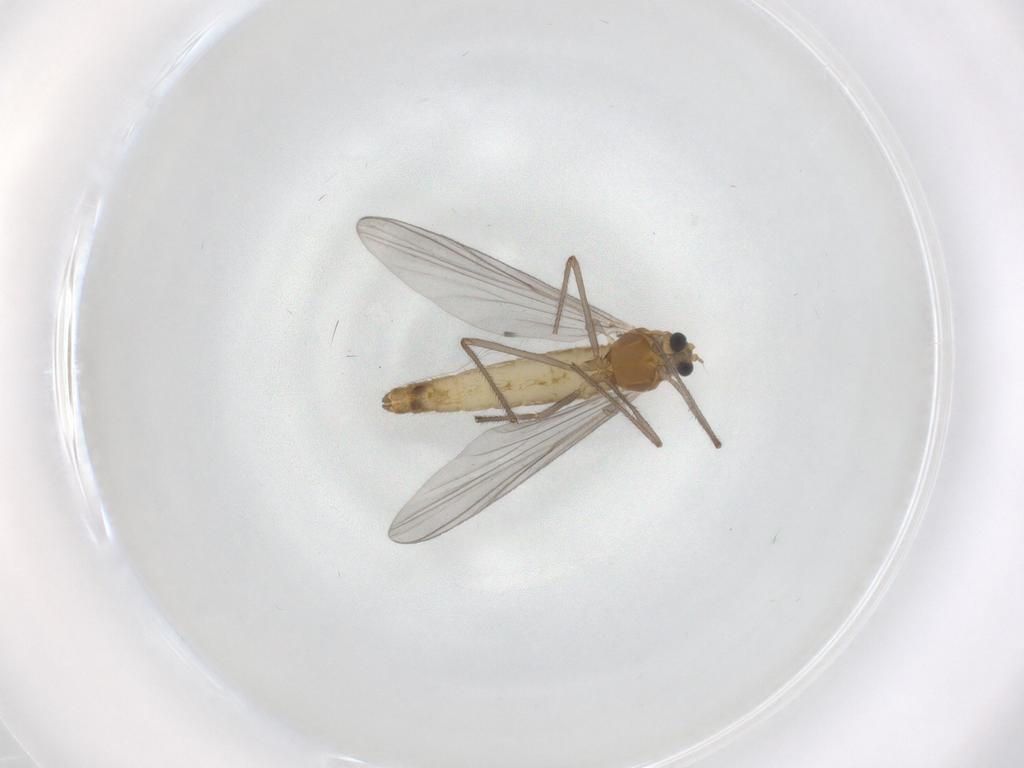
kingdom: Animalia
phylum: Arthropoda
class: Insecta
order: Diptera
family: Chironomidae
